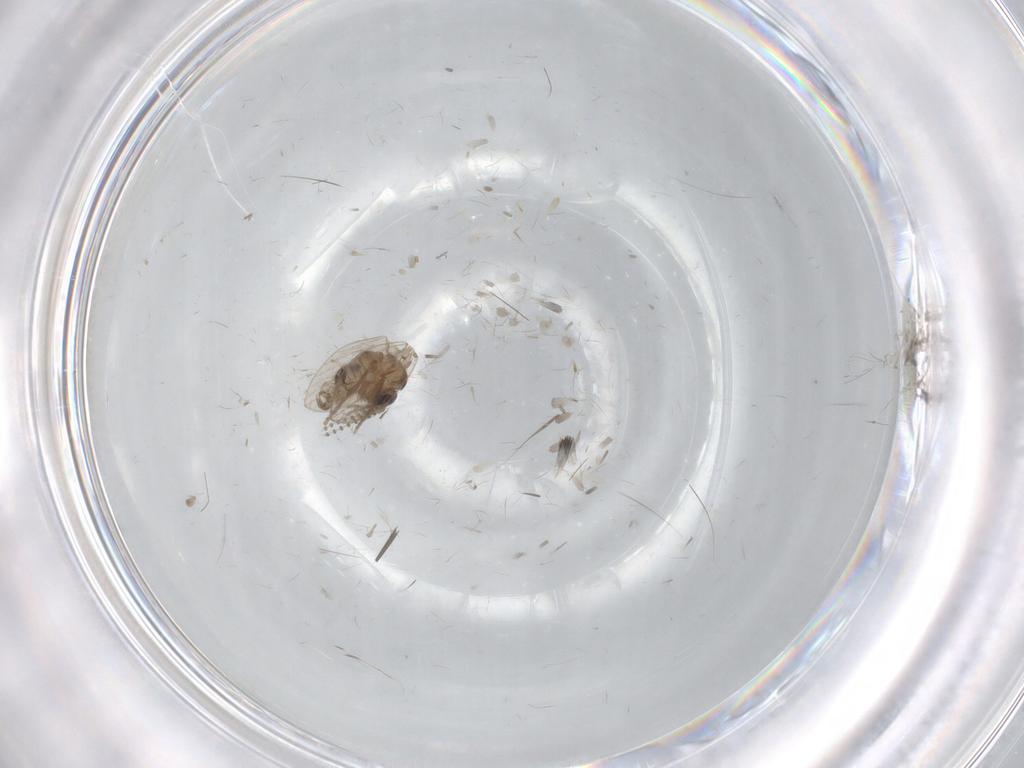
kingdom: Animalia
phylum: Arthropoda
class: Insecta
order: Diptera
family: Psychodidae
